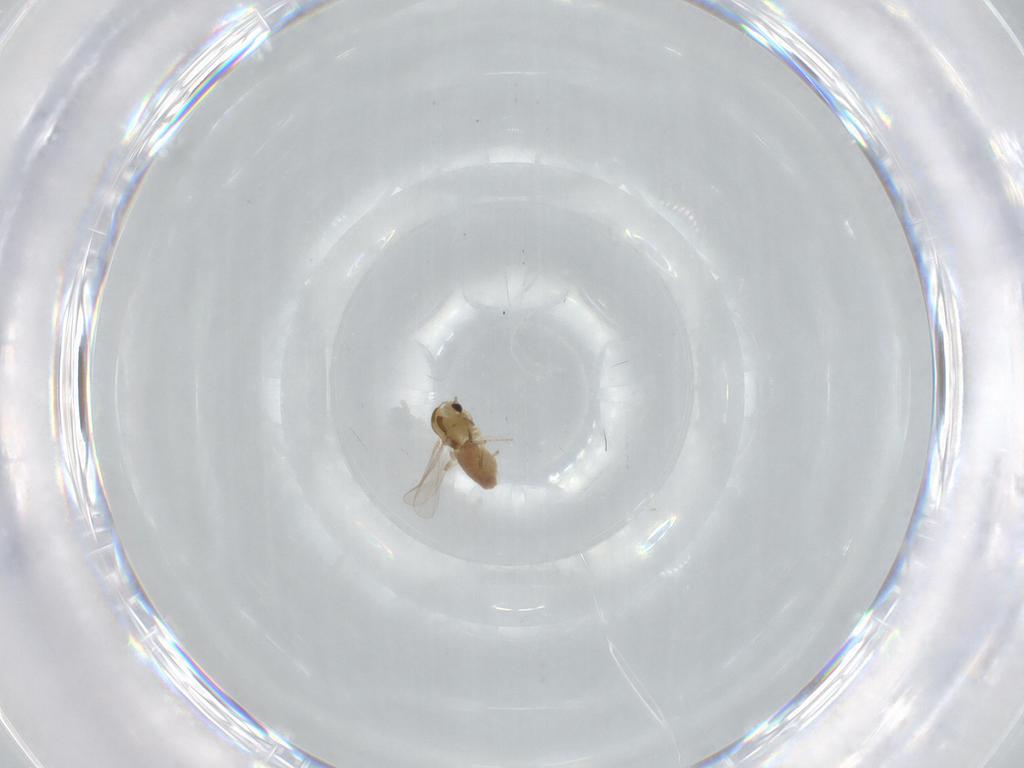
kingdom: Animalia
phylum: Arthropoda
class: Insecta
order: Diptera
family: Chironomidae
